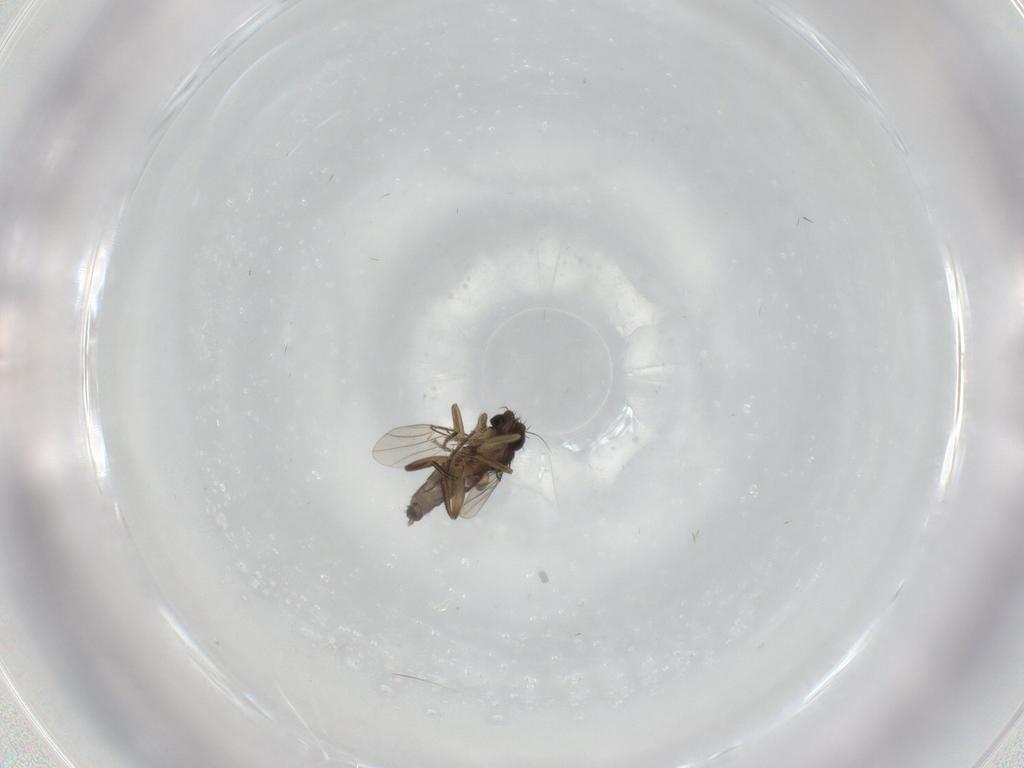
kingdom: Animalia
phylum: Arthropoda
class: Insecta
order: Diptera
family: Phoridae
